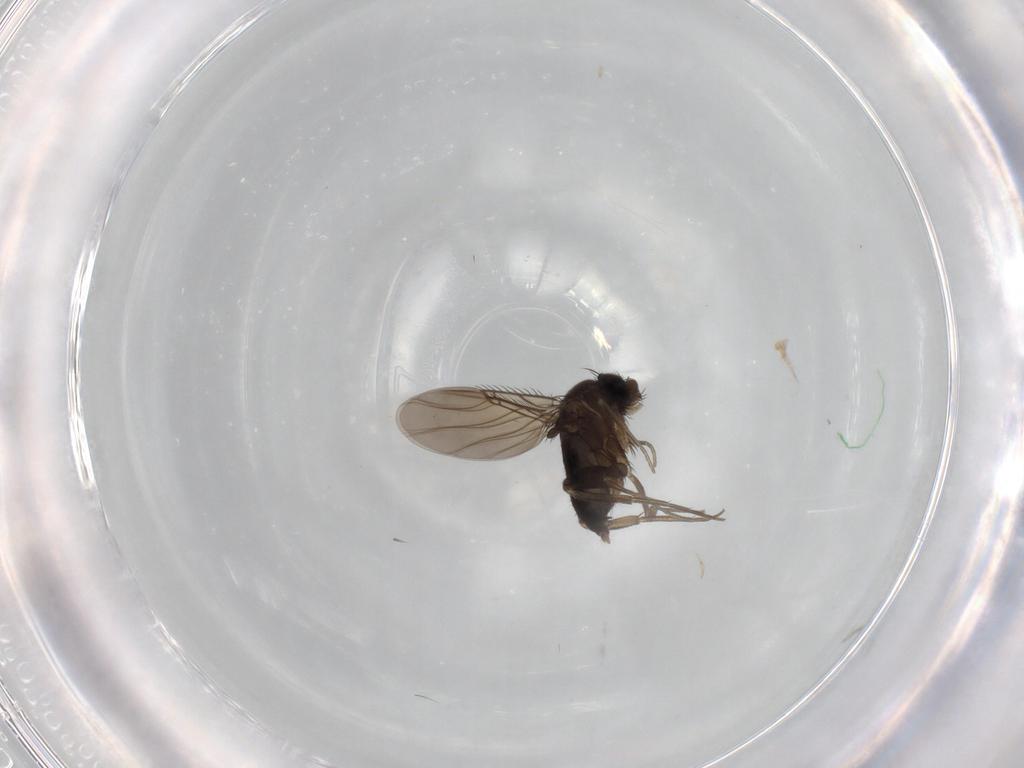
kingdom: Animalia
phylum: Arthropoda
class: Insecta
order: Diptera
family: Phoridae
